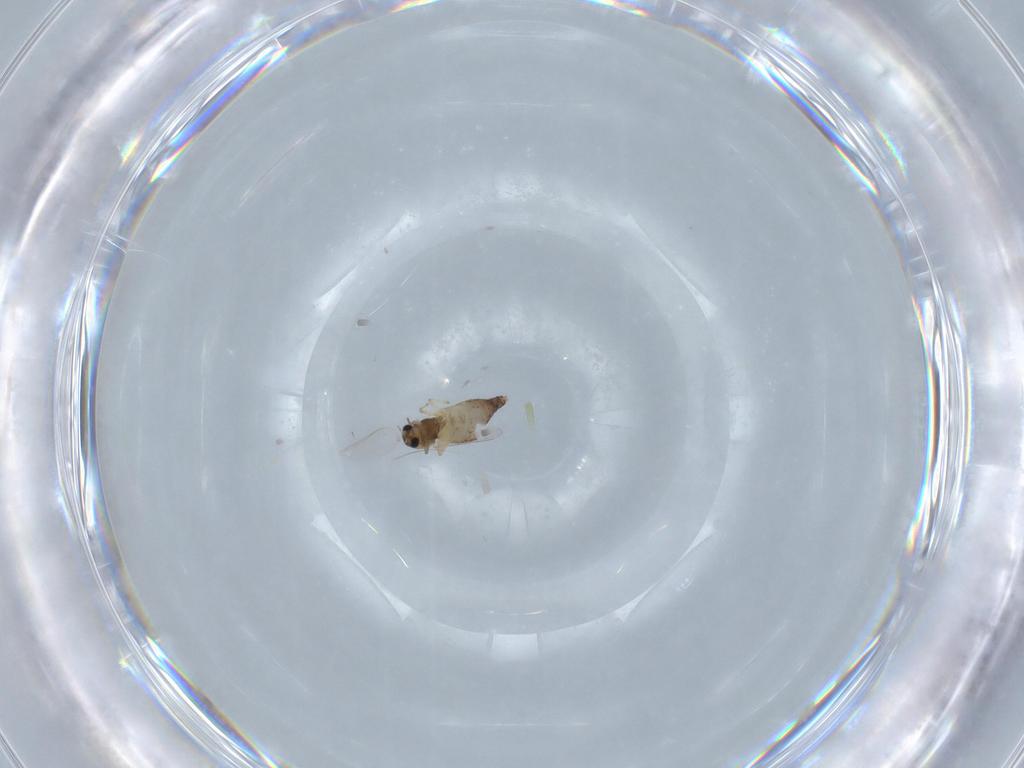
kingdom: Animalia
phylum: Arthropoda
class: Insecta
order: Diptera
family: Chironomidae
